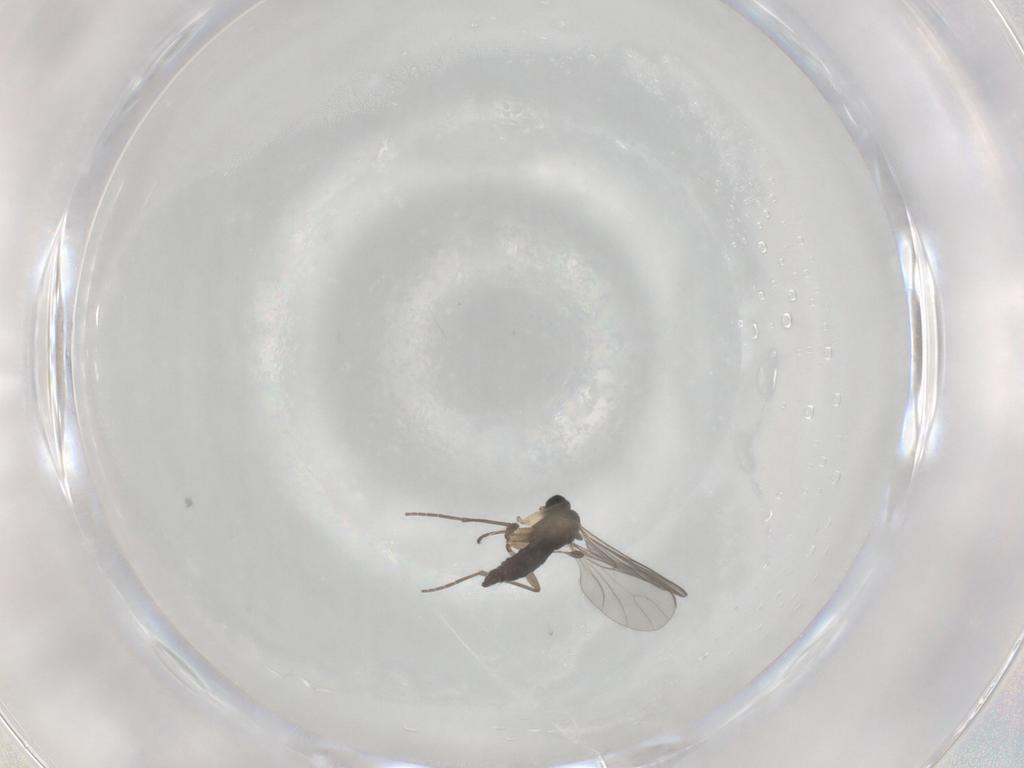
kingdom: Animalia
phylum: Arthropoda
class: Insecta
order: Diptera
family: Sciaridae
